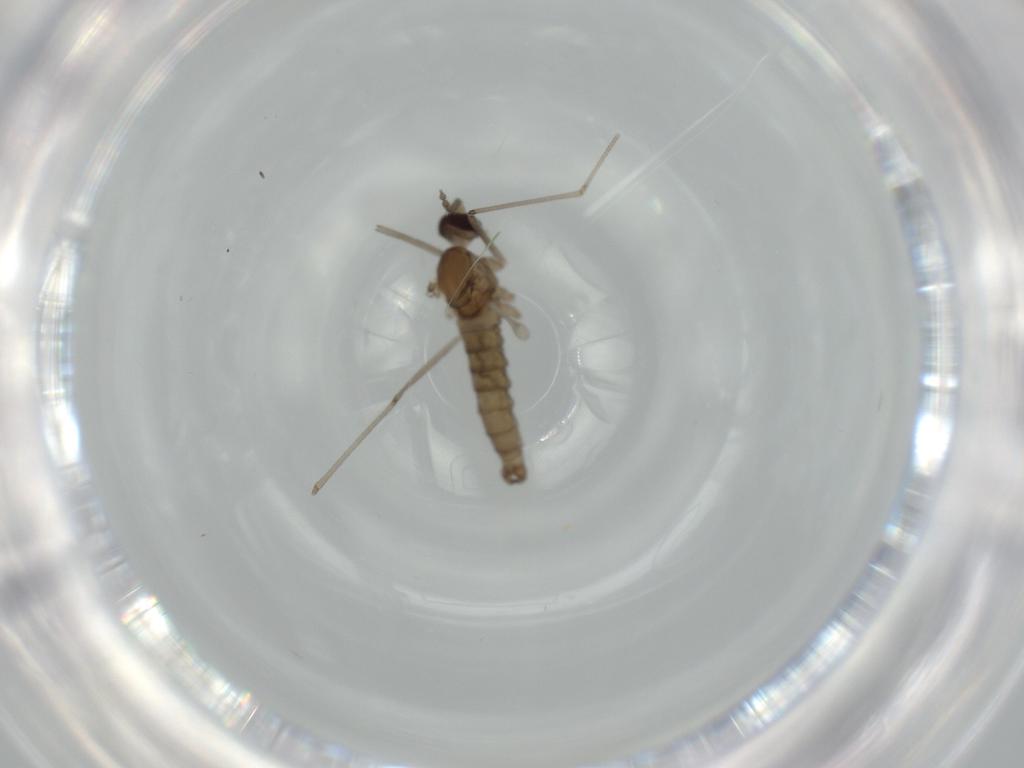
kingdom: Animalia
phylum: Arthropoda
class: Insecta
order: Diptera
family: Cecidomyiidae
